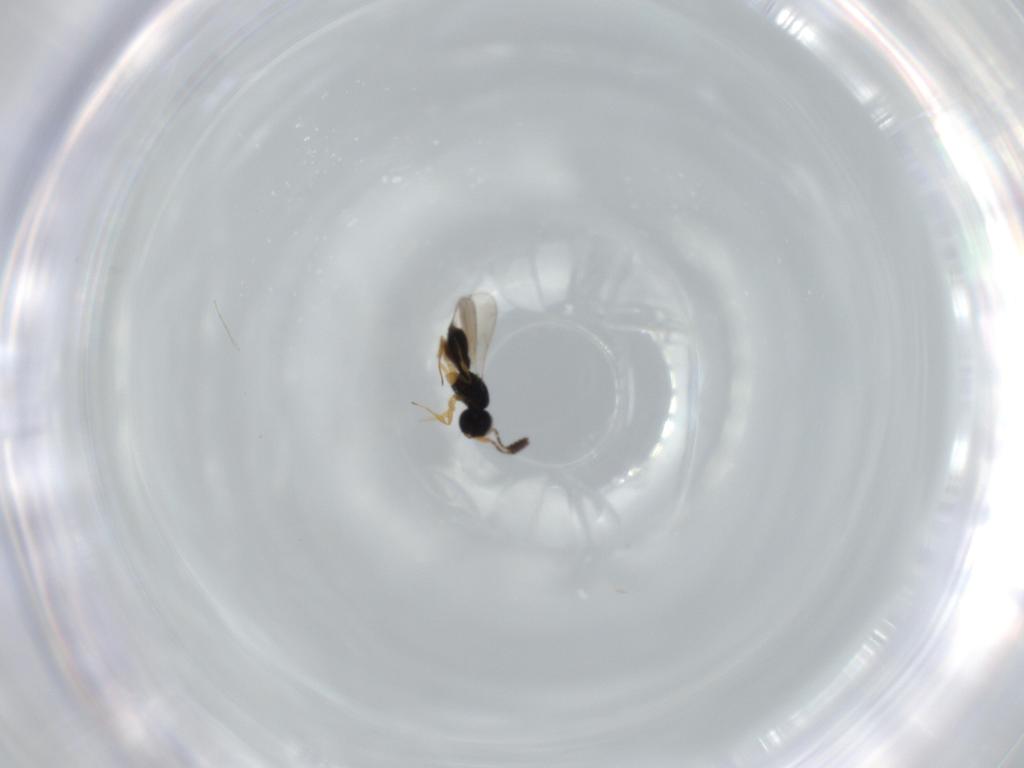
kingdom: Animalia
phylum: Arthropoda
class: Insecta
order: Hymenoptera
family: Scelionidae
